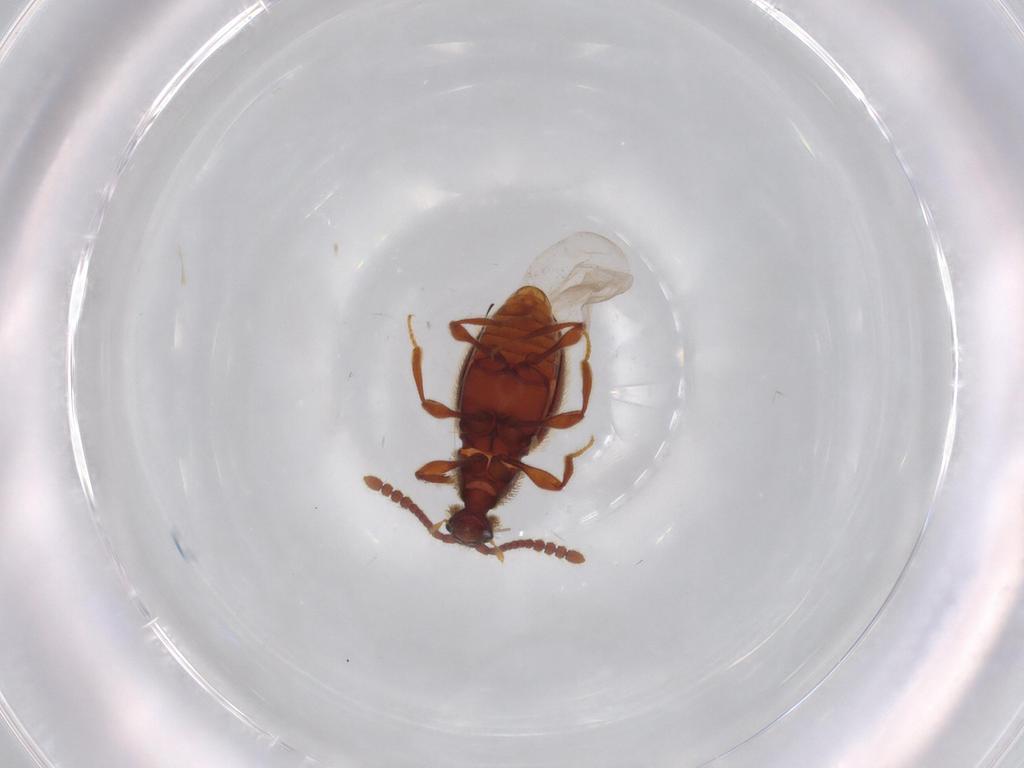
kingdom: Animalia
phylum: Arthropoda
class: Insecta
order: Coleoptera
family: Staphylinidae
